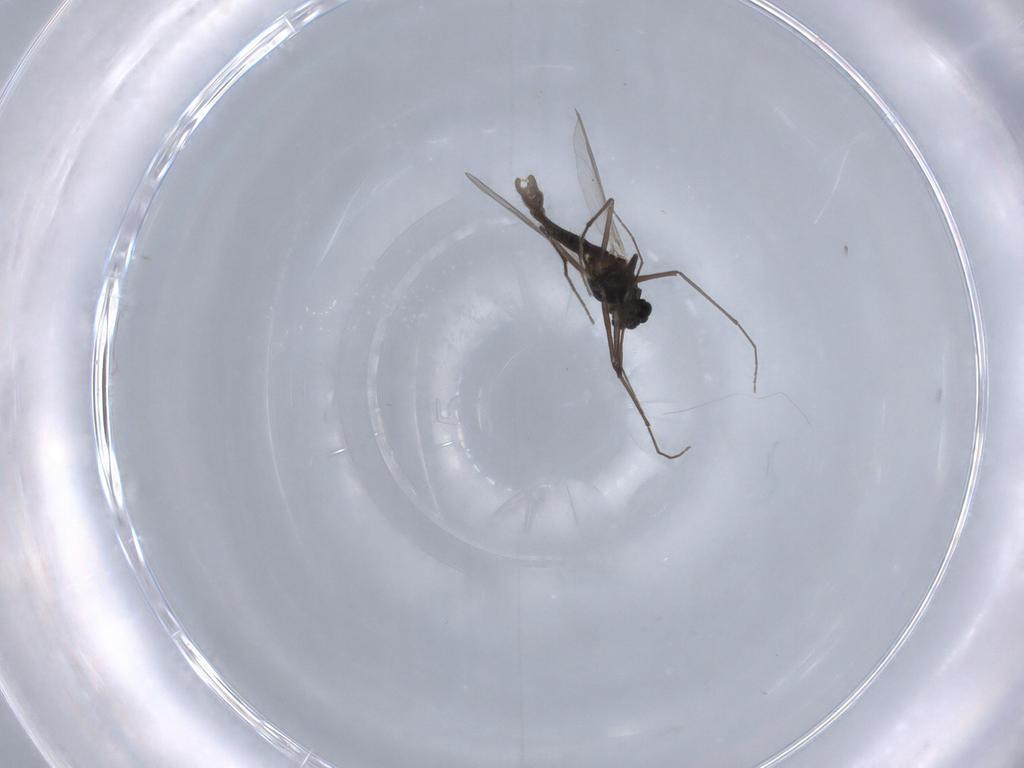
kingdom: Animalia
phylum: Arthropoda
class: Insecta
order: Diptera
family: Chironomidae
